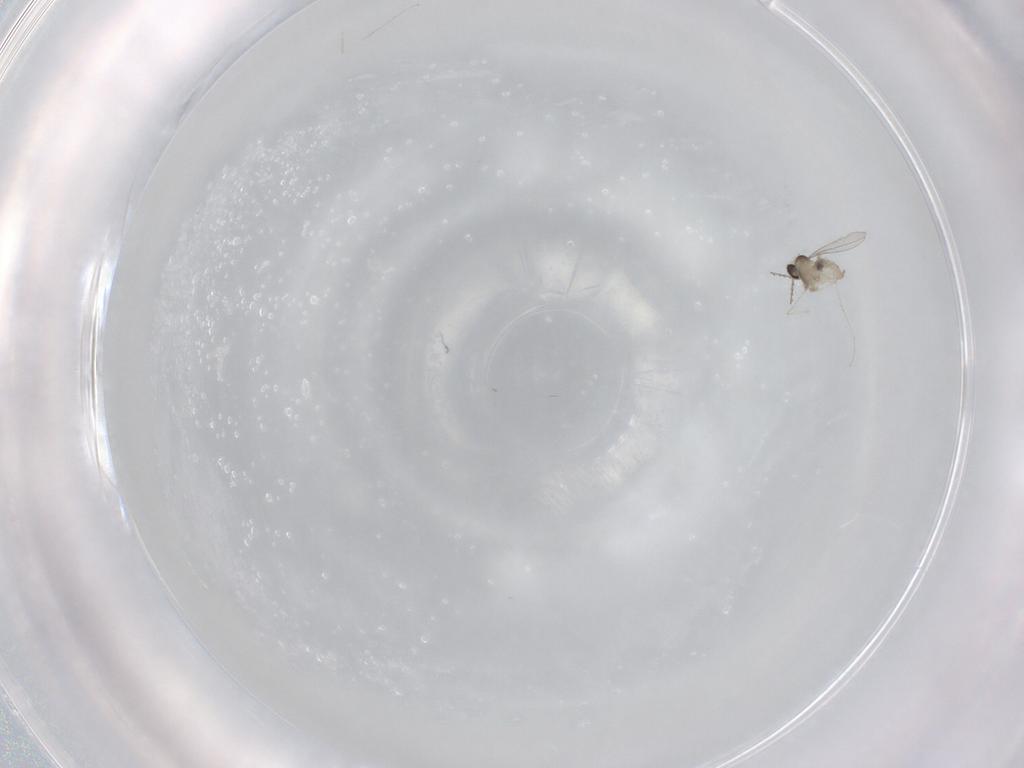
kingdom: Animalia
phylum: Arthropoda
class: Insecta
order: Diptera
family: Cecidomyiidae
